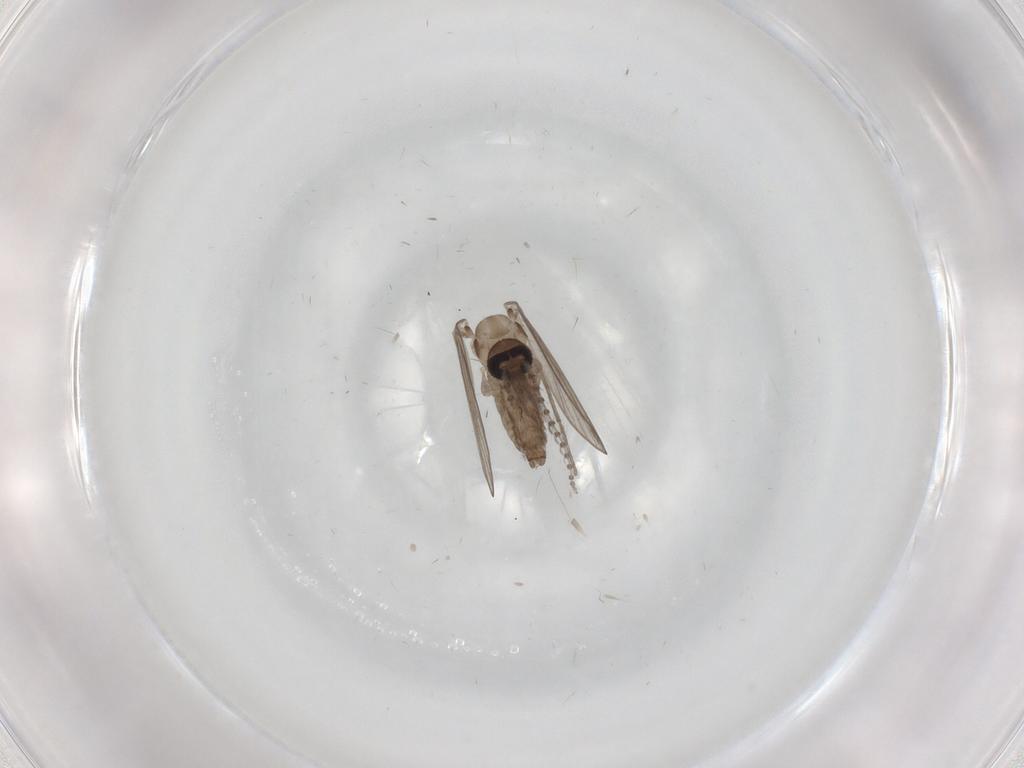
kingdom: Animalia
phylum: Arthropoda
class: Insecta
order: Diptera
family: Psychodidae
